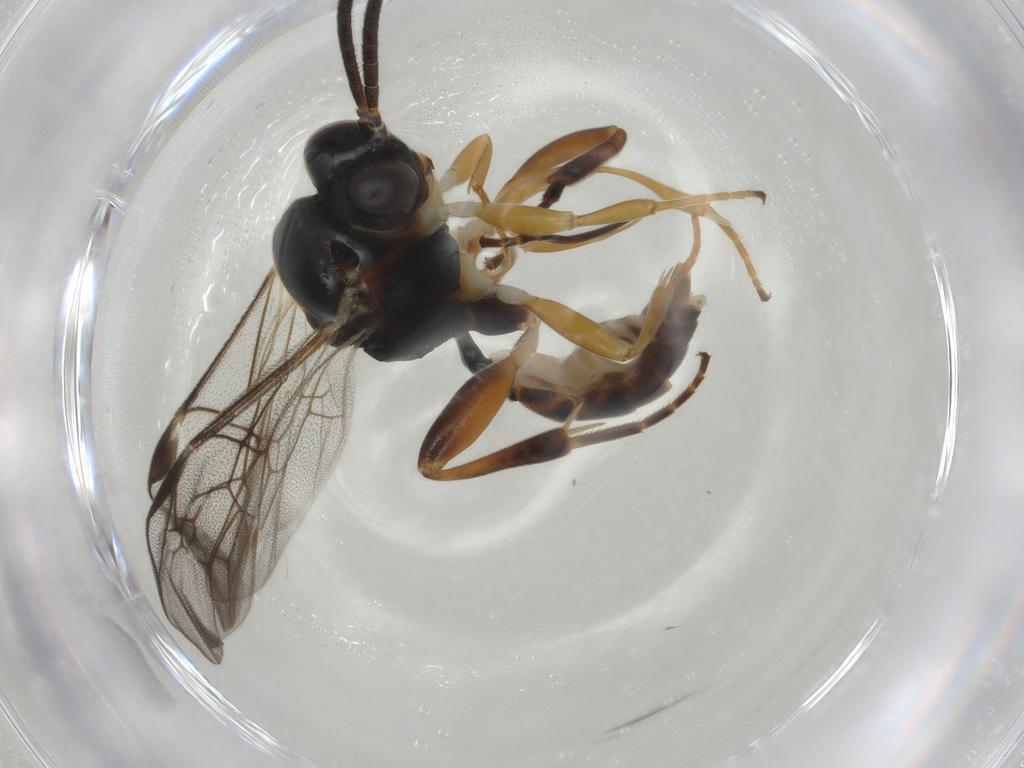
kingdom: Animalia
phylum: Arthropoda
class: Insecta
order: Hymenoptera
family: Ichneumonidae
